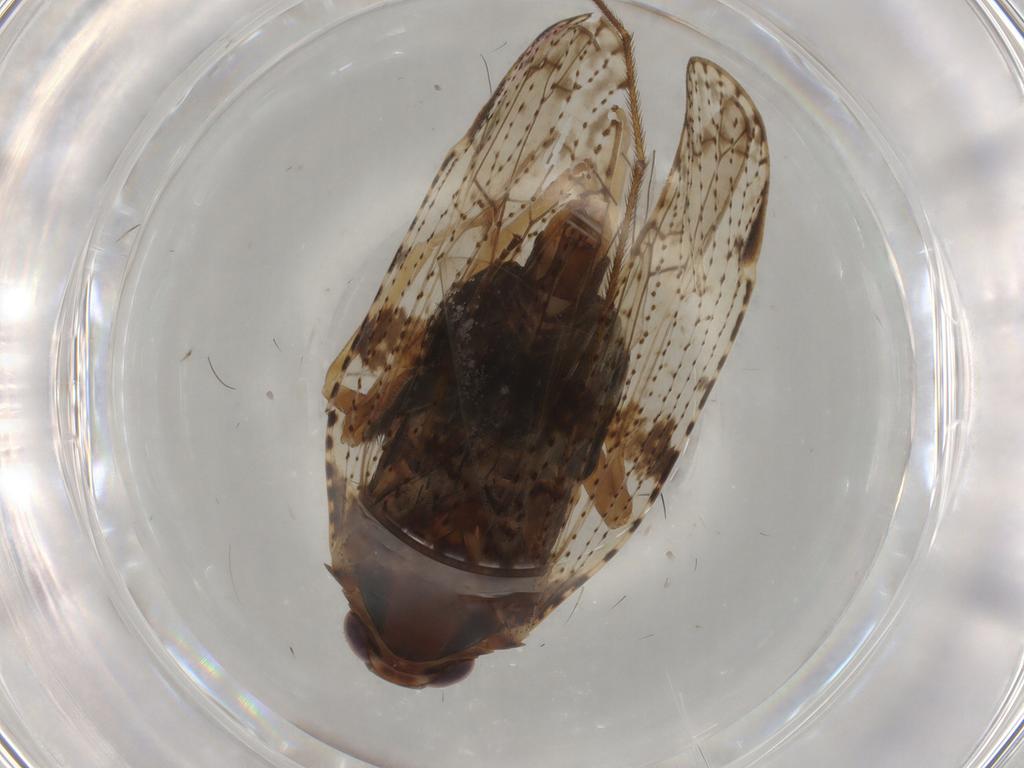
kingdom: Animalia
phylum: Arthropoda
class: Insecta
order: Hemiptera
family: Cixiidae
